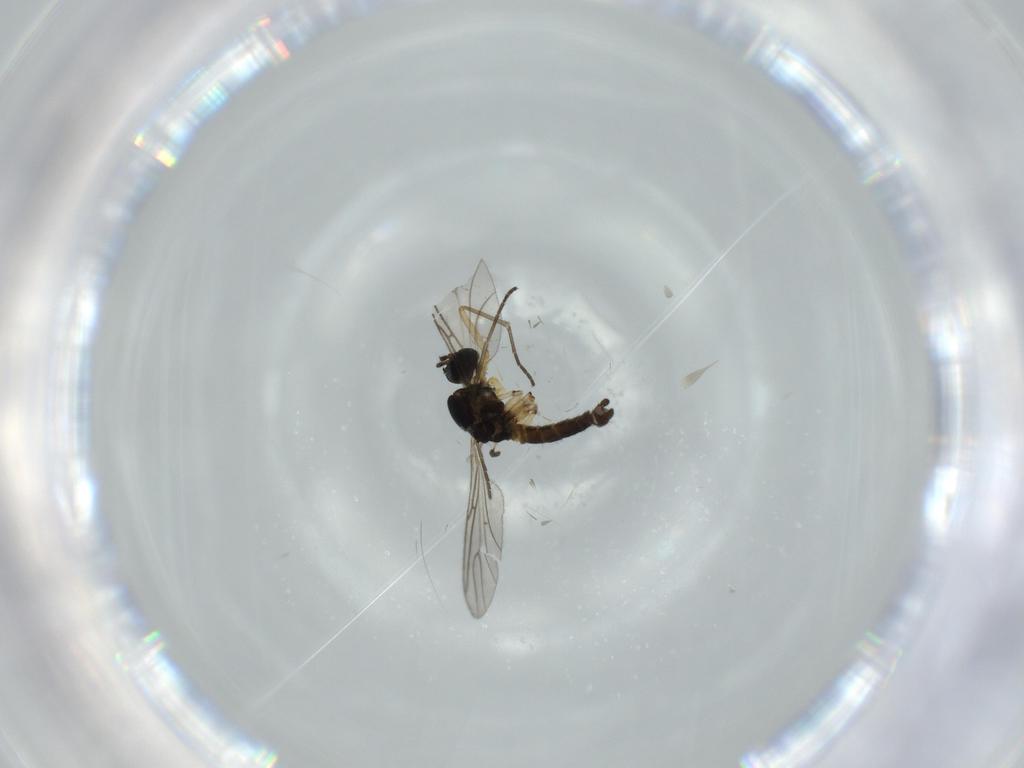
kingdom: Animalia
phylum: Arthropoda
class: Insecta
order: Diptera
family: Sciaridae
